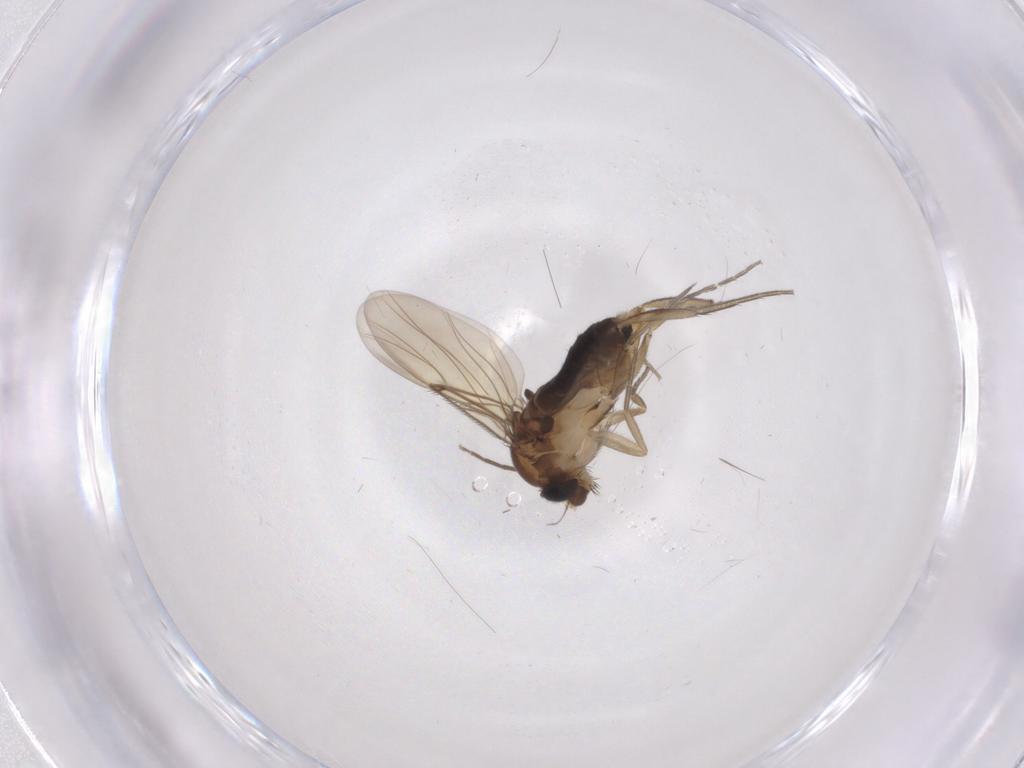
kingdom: Animalia
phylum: Arthropoda
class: Insecta
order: Diptera
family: Phoridae
